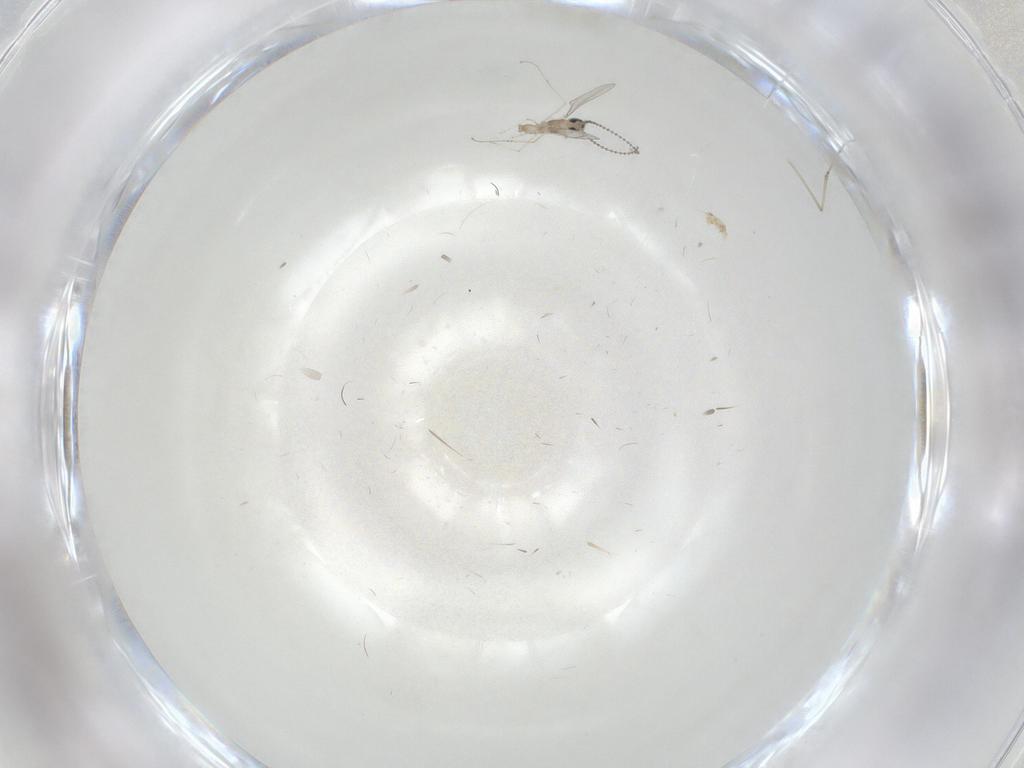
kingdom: Animalia
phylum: Arthropoda
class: Insecta
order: Diptera
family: Cecidomyiidae
